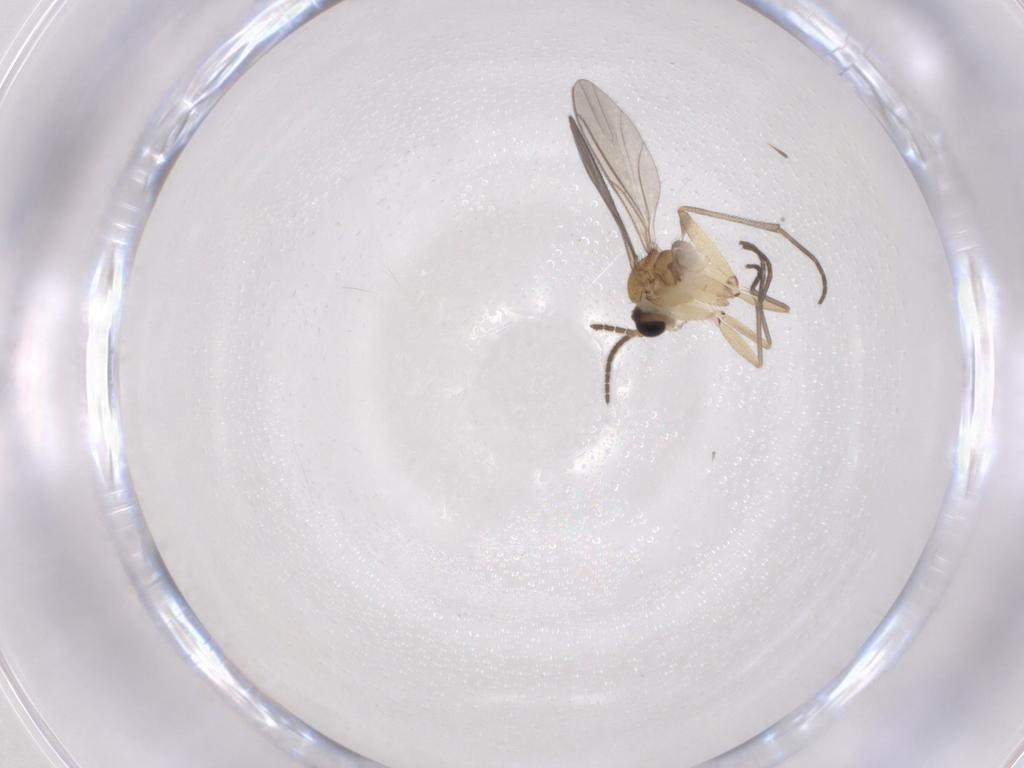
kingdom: Animalia
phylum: Arthropoda
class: Insecta
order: Diptera
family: Sciaridae
